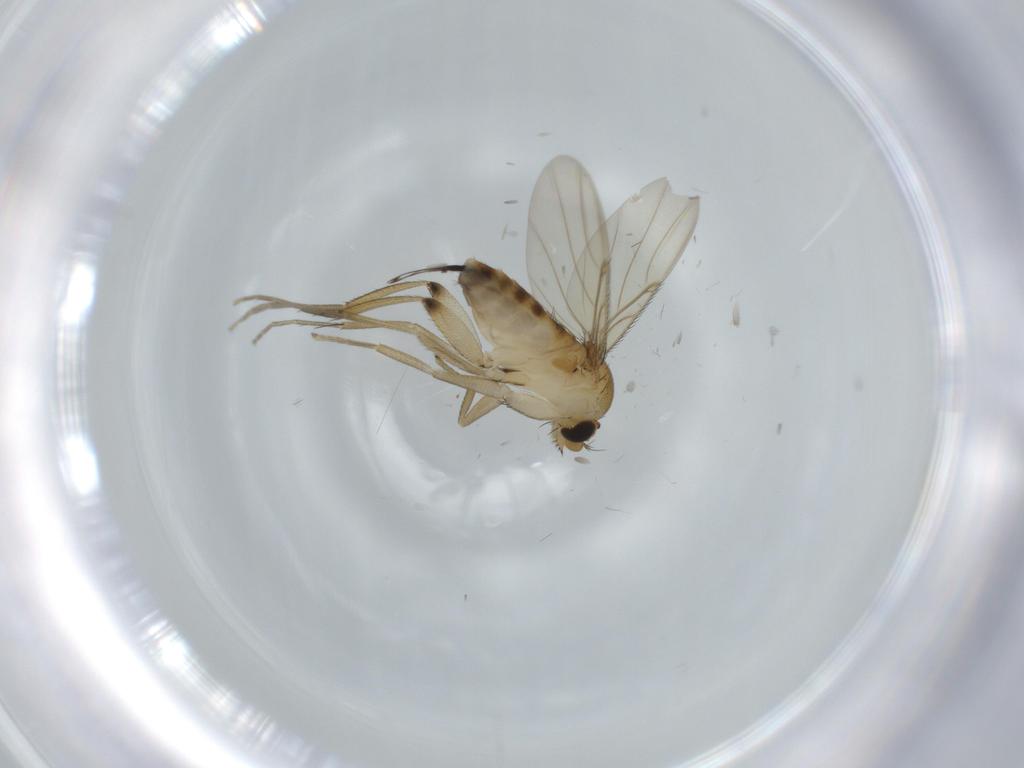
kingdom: Animalia
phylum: Arthropoda
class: Insecta
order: Diptera
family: Phoridae
